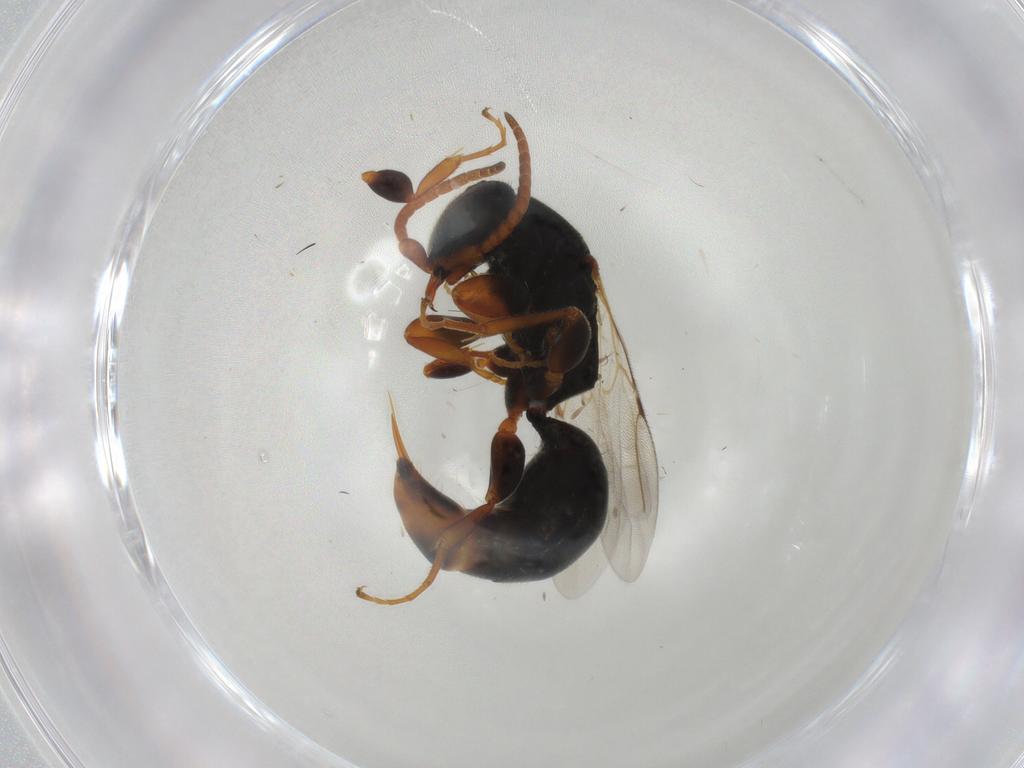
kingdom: Animalia
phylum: Arthropoda
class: Insecta
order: Hymenoptera
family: Bethylidae
